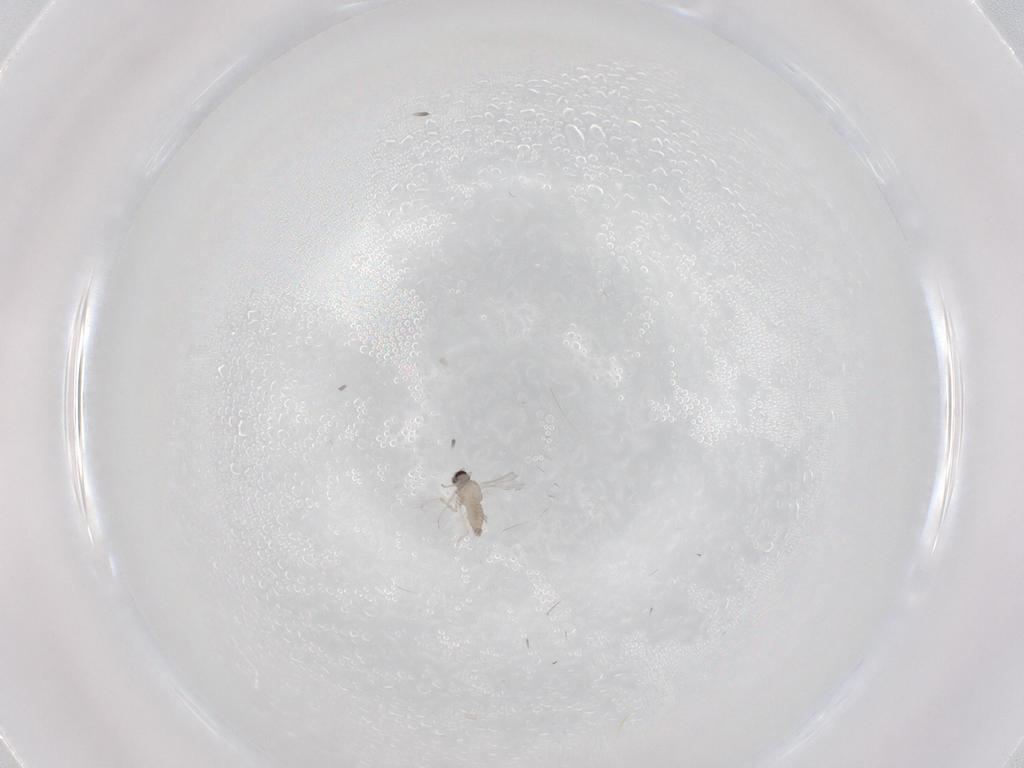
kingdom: Animalia
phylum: Arthropoda
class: Insecta
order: Diptera
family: Cecidomyiidae
